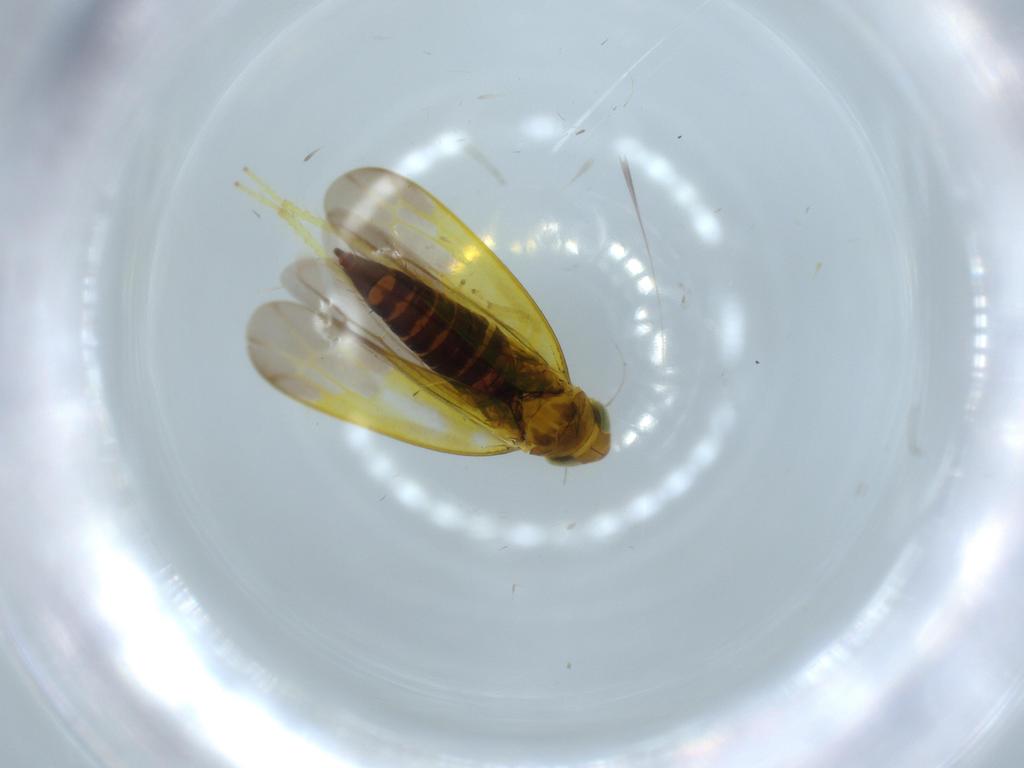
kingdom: Animalia
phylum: Arthropoda
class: Insecta
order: Hemiptera
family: Cicadellidae
